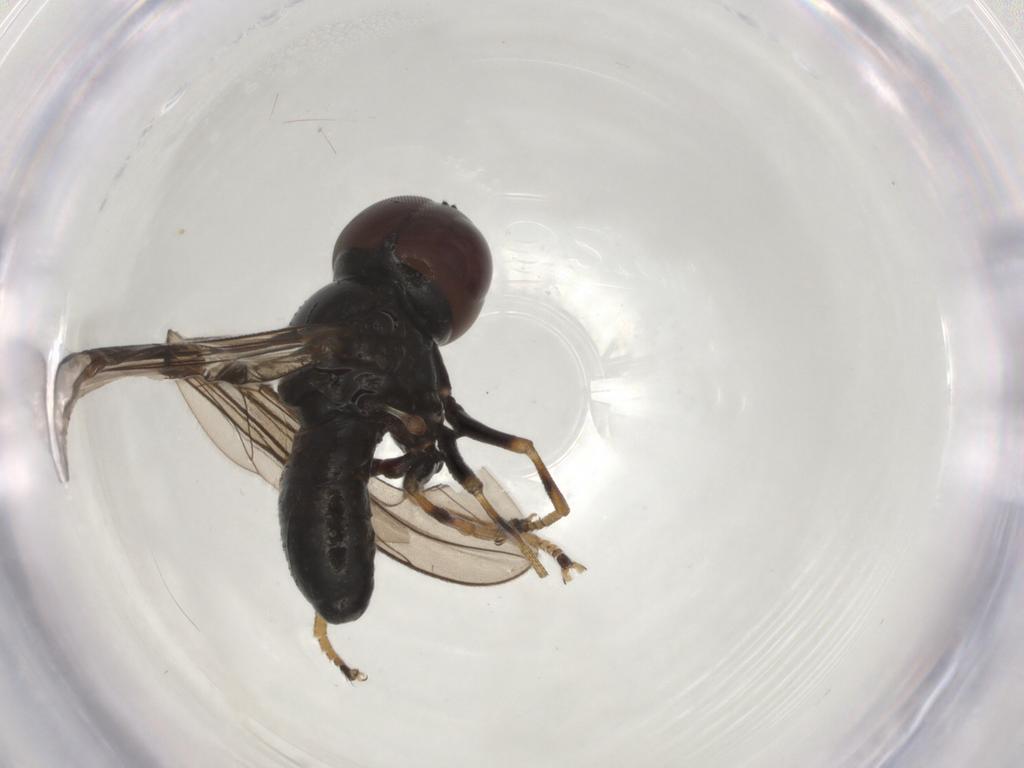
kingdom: Animalia
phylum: Arthropoda
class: Insecta
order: Diptera
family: Pipunculidae
